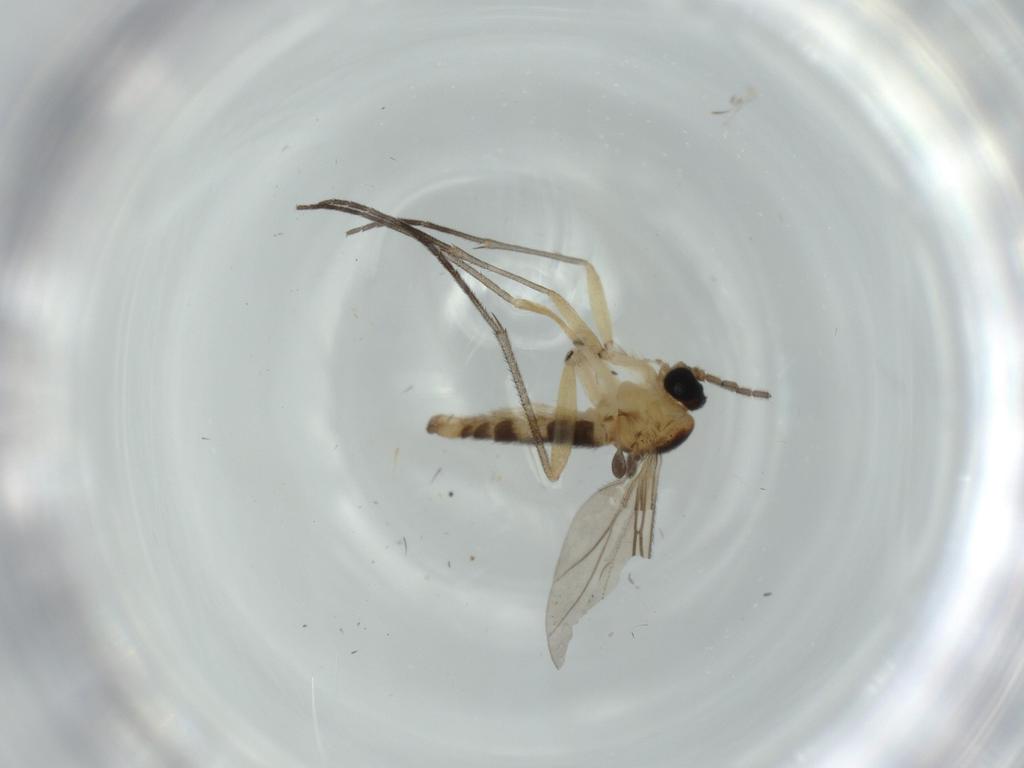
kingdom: Animalia
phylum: Arthropoda
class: Insecta
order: Diptera
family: Sciaridae
